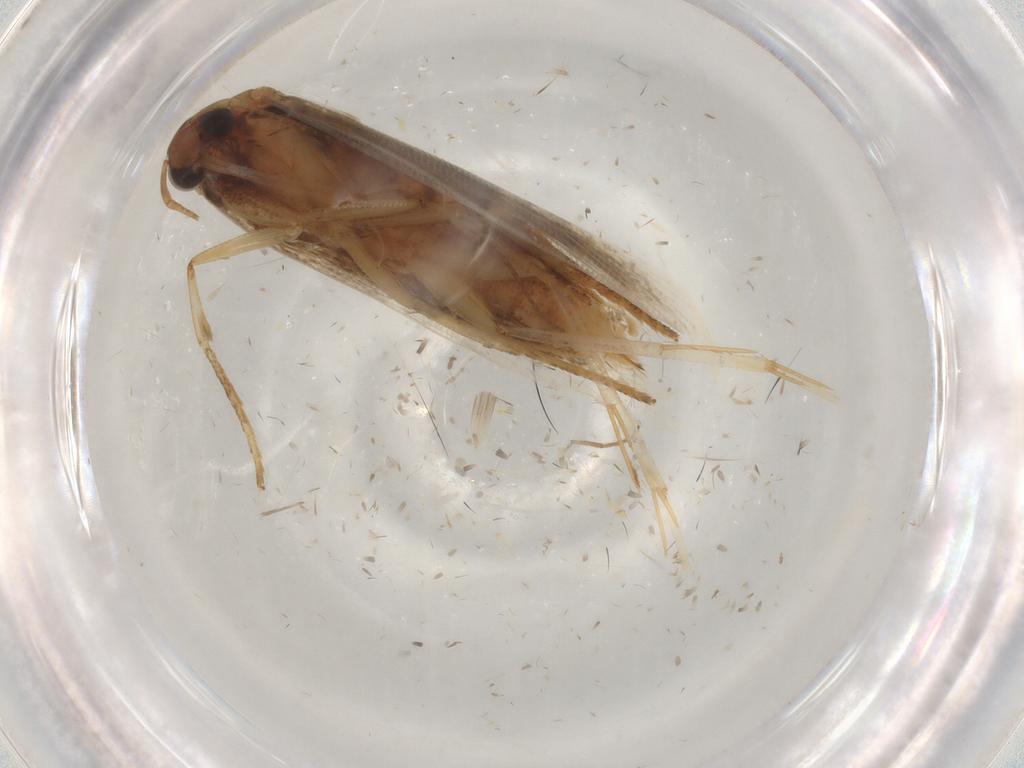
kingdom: Animalia
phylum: Arthropoda
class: Insecta
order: Lepidoptera
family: Gelechiidae
